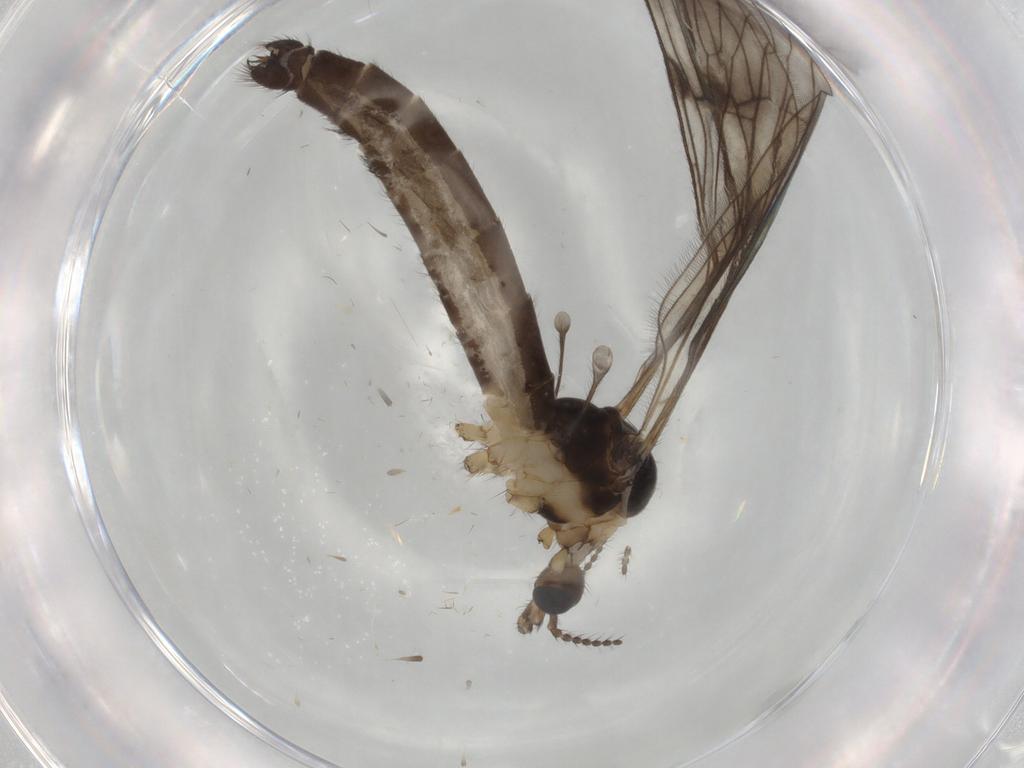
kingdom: Animalia
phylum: Arthropoda
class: Insecta
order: Diptera
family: Limoniidae
